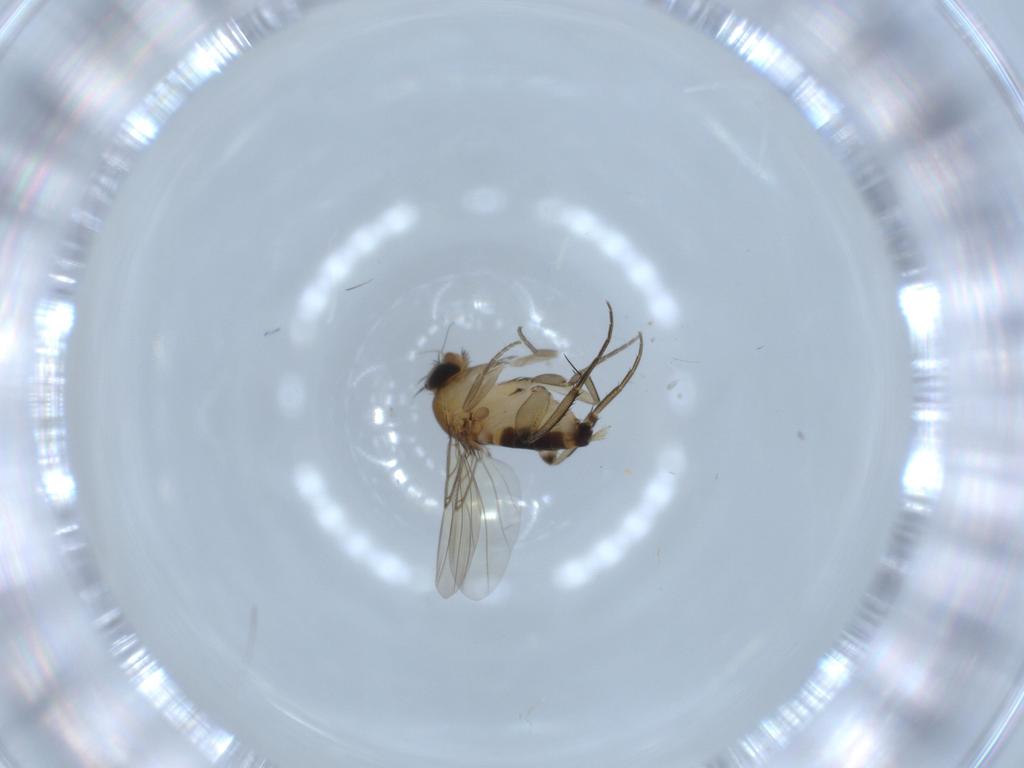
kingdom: Animalia
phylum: Arthropoda
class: Insecta
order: Diptera
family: Phoridae
